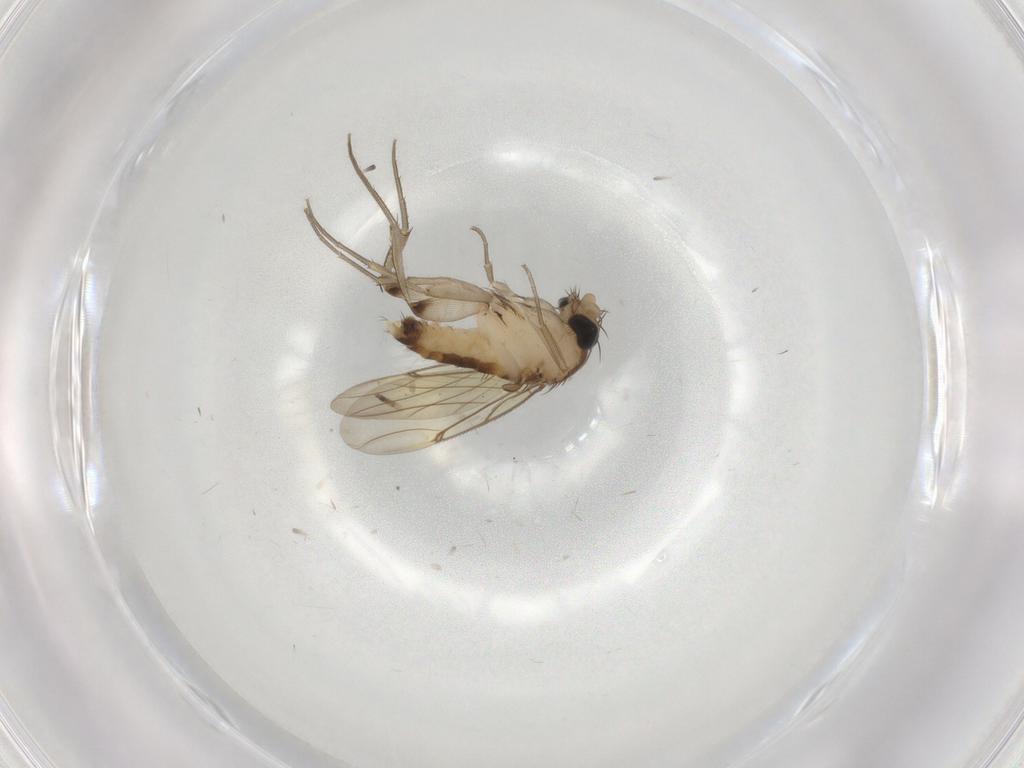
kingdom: Animalia
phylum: Arthropoda
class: Insecta
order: Diptera
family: Phoridae
